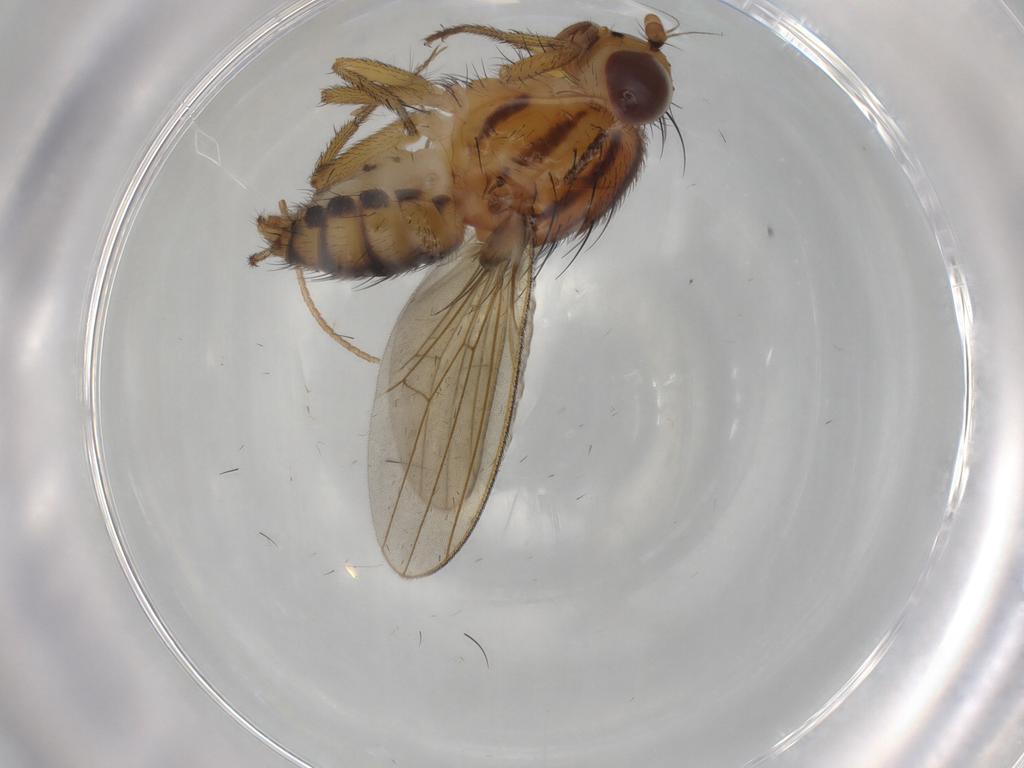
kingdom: Animalia
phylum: Arthropoda
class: Insecta
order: Diptera
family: Dolichopodidae
